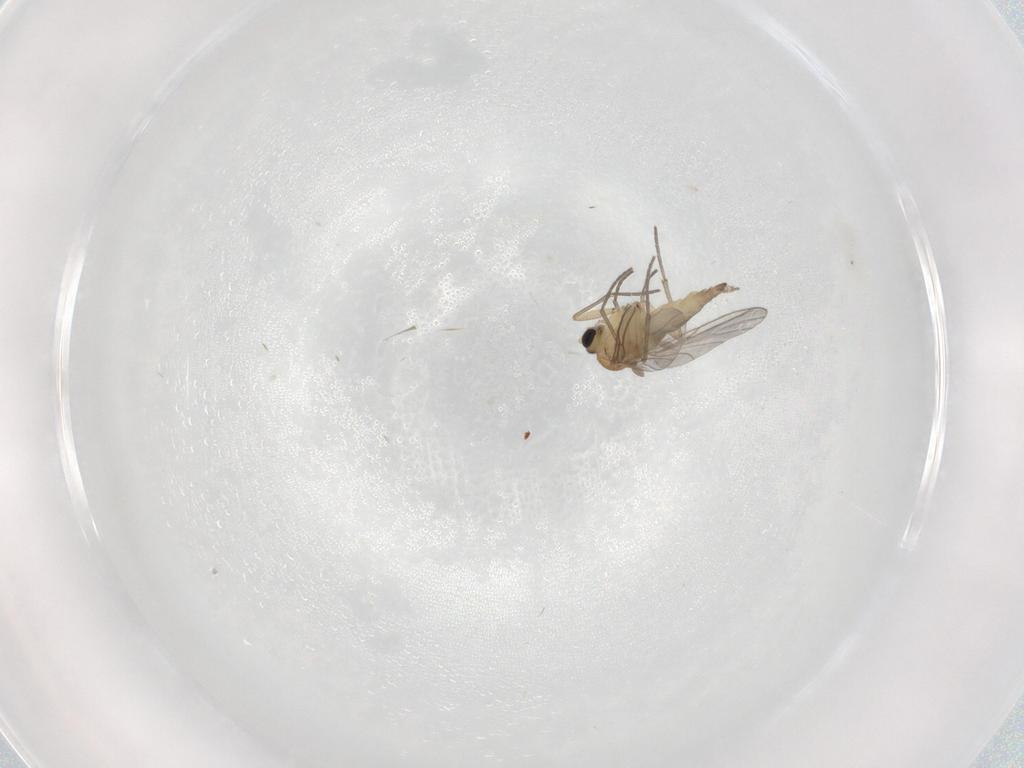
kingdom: Animalia
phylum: Arthropoda
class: Insecta
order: Diptera
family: Sciaridae
